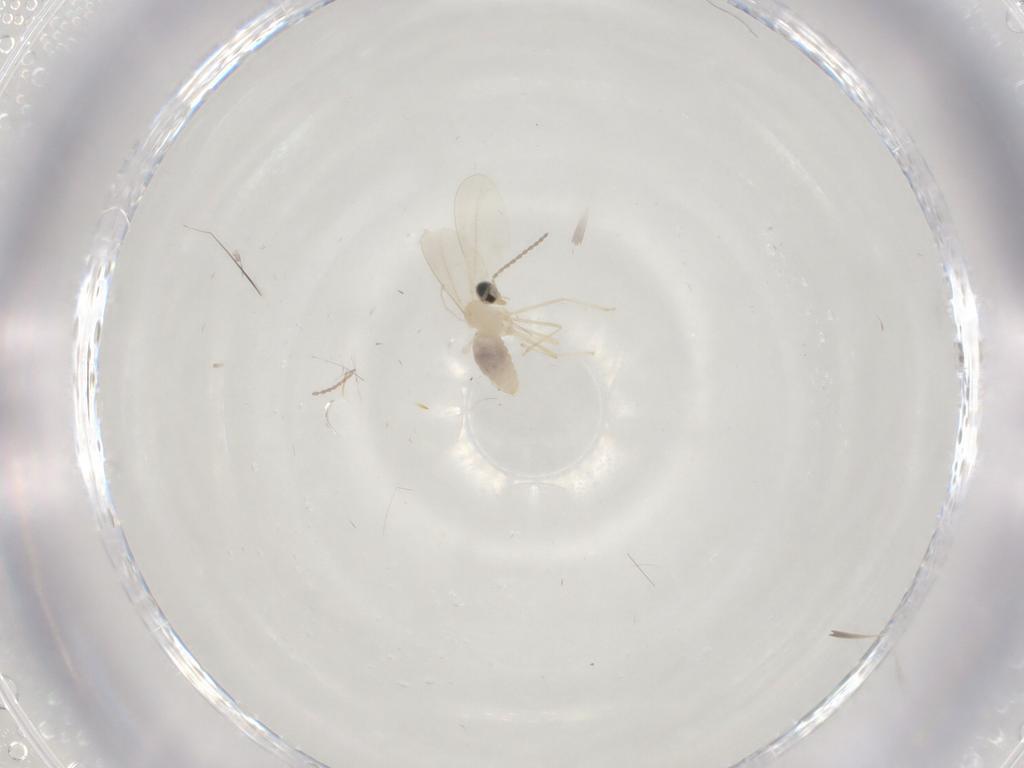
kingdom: Animalia
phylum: Arthropoda
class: Insecta
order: Diptera
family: Cecidomyiidae
